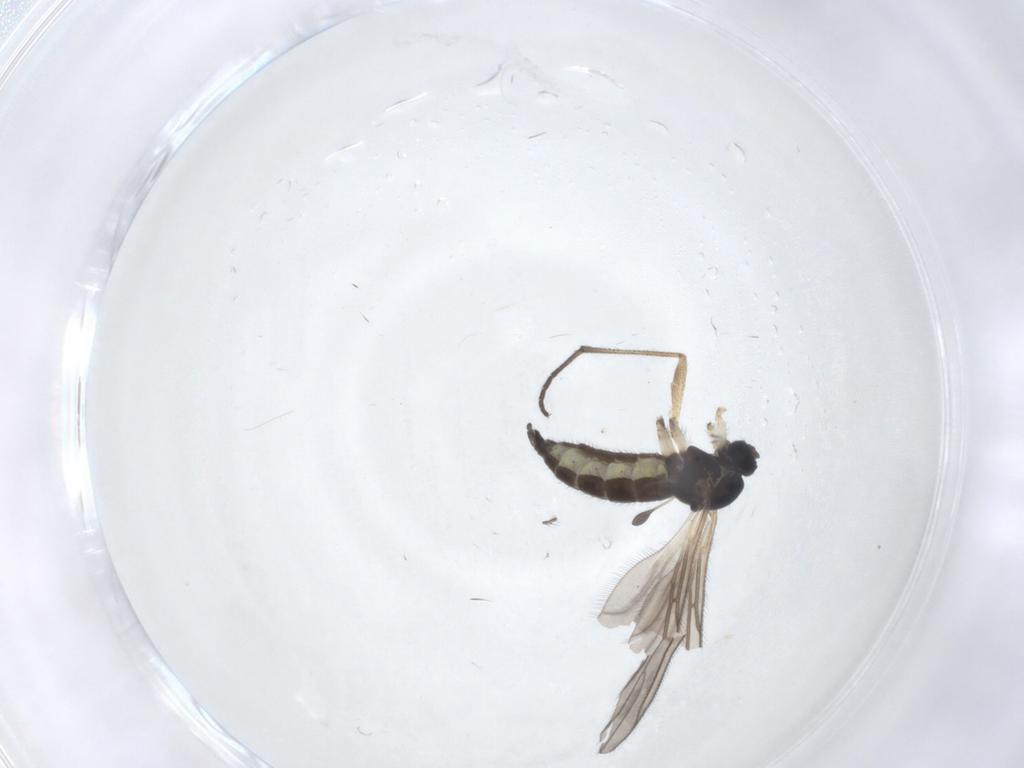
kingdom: Animalia
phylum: Arthropoda
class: Insecta
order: Diptera
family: Sciaridae
